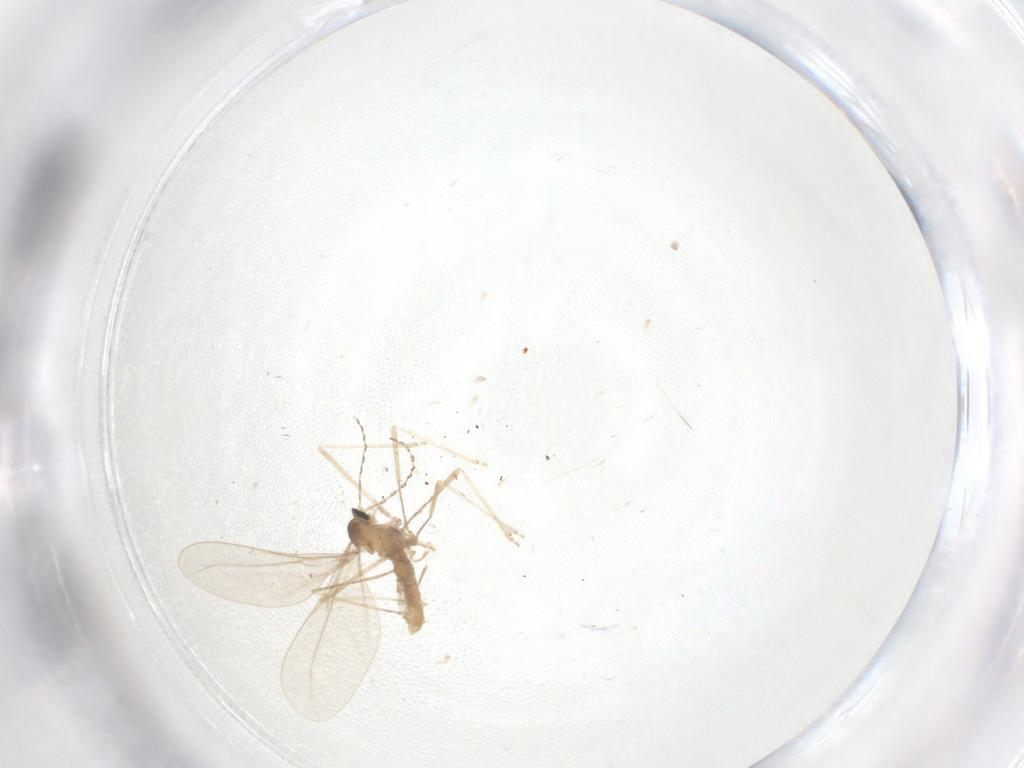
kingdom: Animalia
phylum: Arthropoda
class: Insecta
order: Diptera
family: Cecidomyiidae
